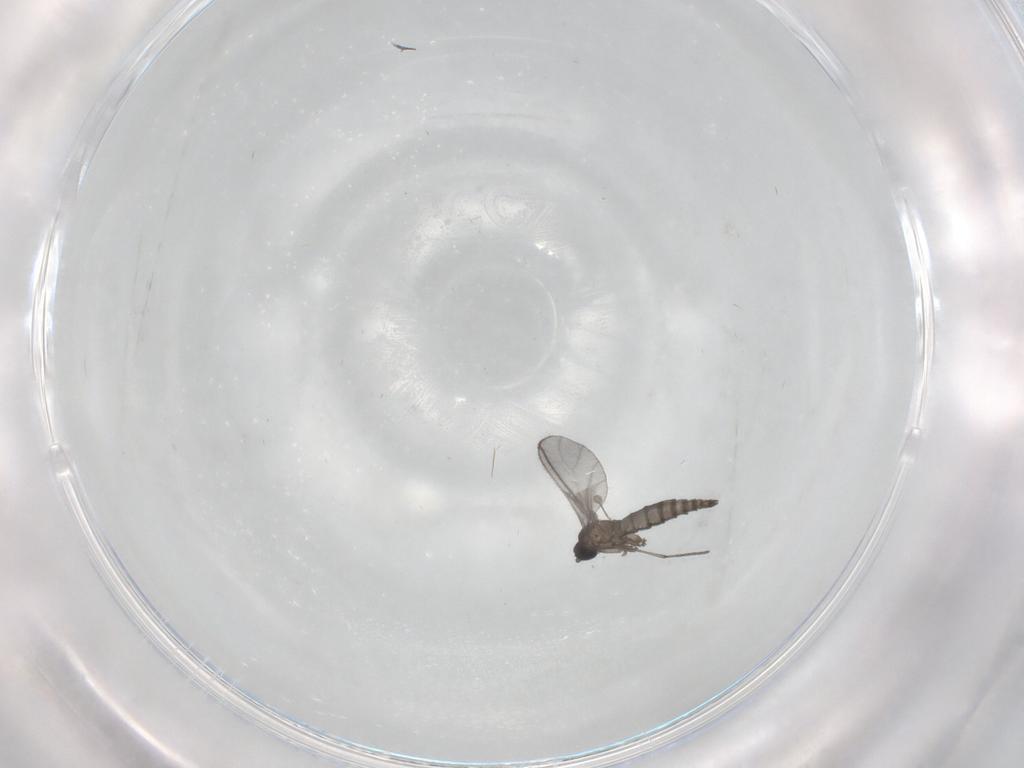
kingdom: Animalia
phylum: Arthropoda
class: Insecta
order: Diptera
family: Sciaridae
